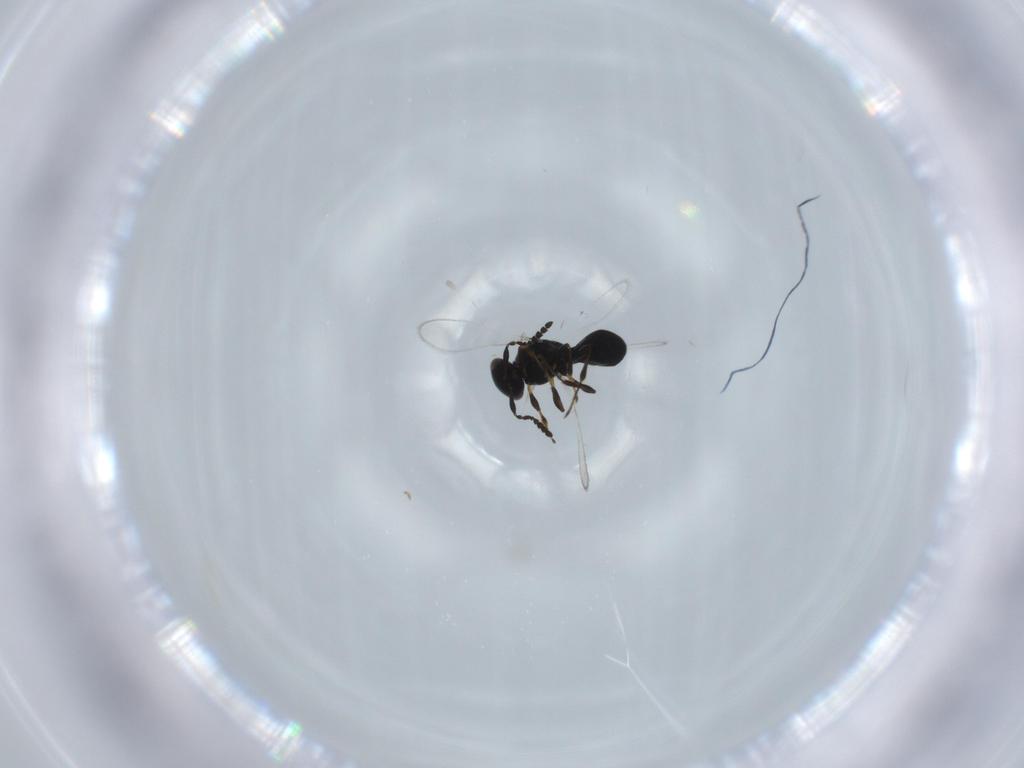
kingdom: Animalia
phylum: Arthropoda
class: Insecta
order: Hymenoptera
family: Platygastridae
